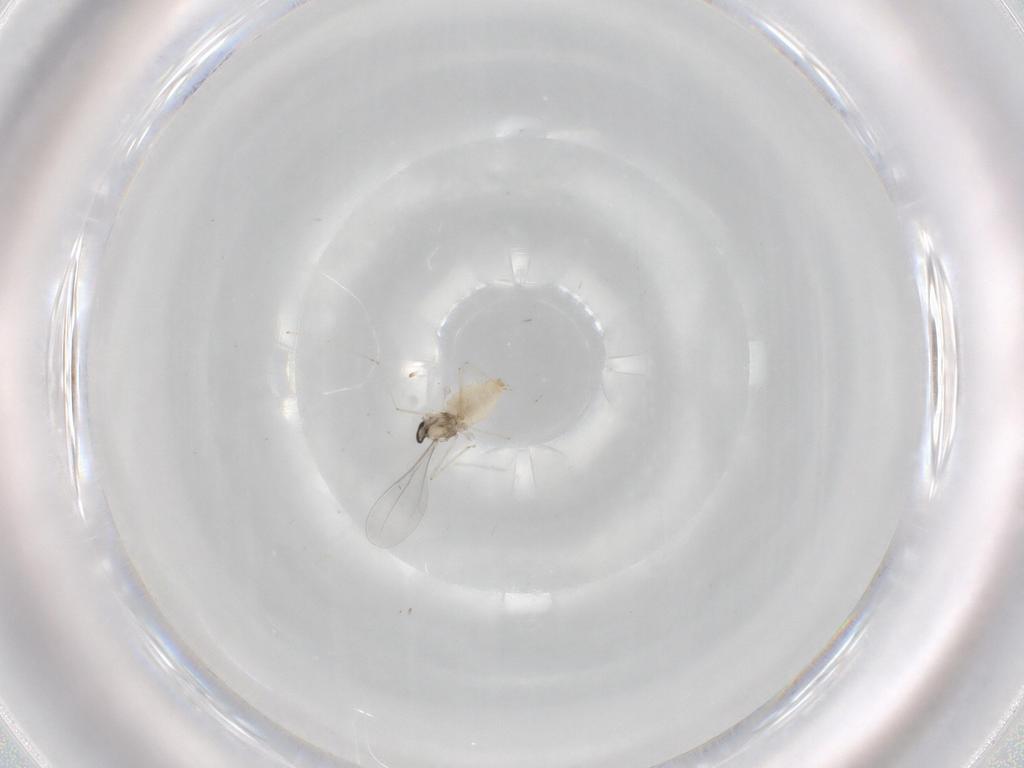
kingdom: Animalia
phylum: Arthropoda
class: Insecta
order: Diptera
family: Cecidomyiidae
